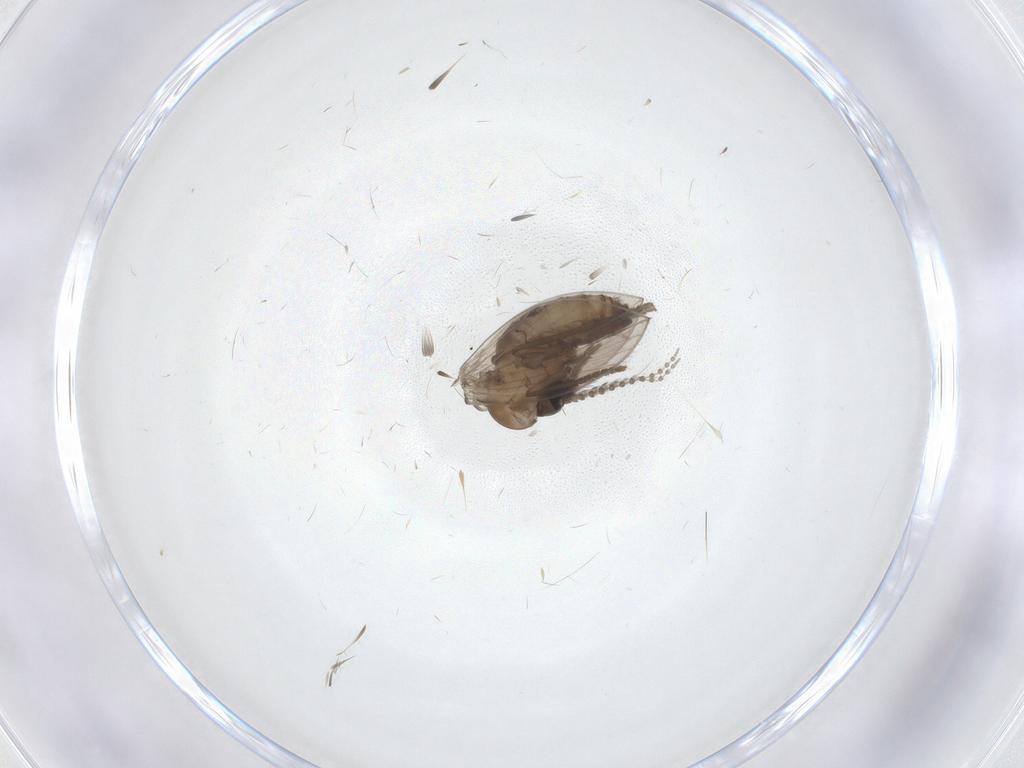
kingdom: Animalia
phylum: Arthropoda
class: Insecta
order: Diptera
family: Psychodidae
